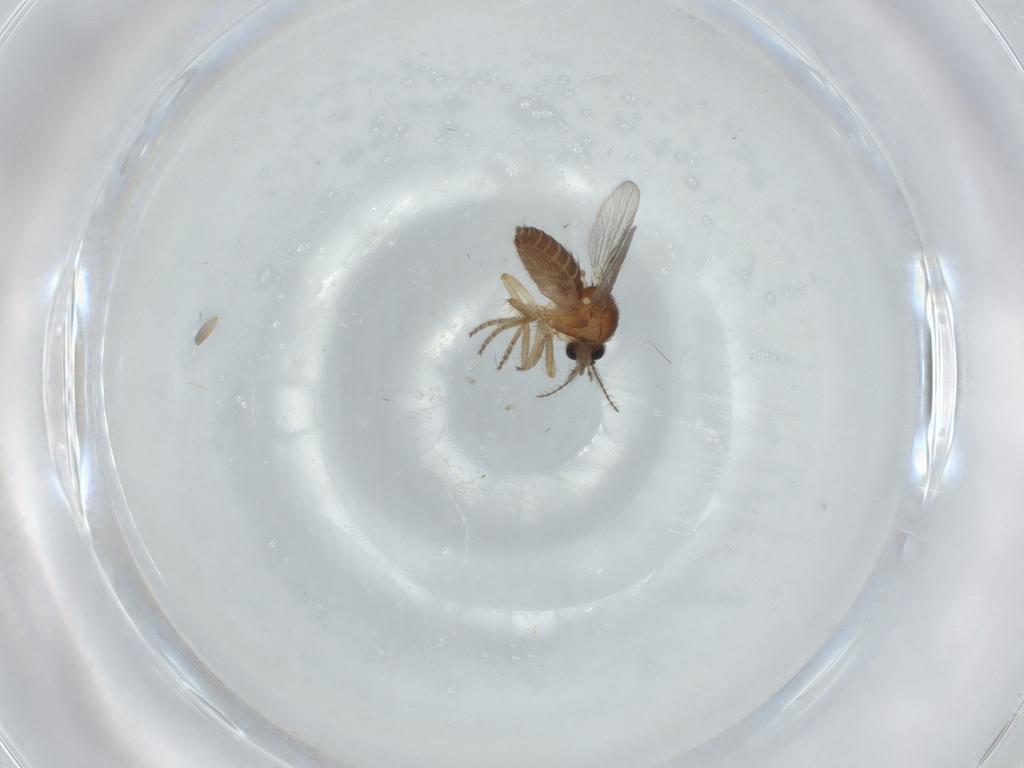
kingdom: Animalia
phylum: Arthropoda
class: Insecta
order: Diptera
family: Ceratopogonidae
